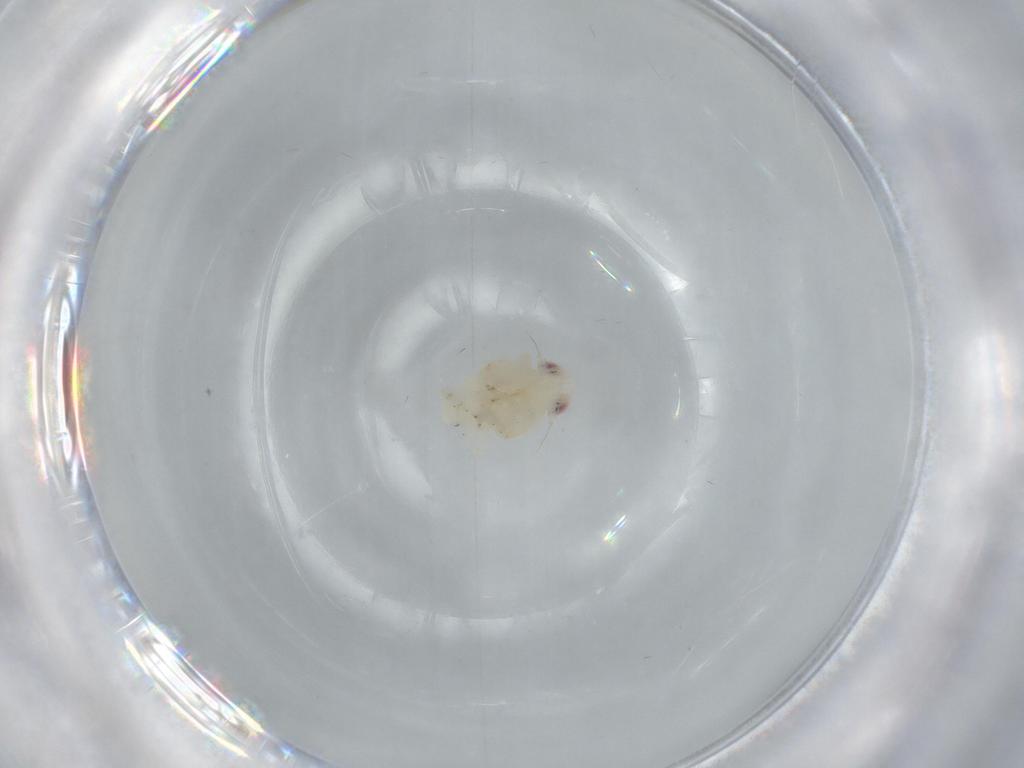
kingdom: Animalia
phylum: Arthropoda
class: Insecta
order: Hemiptera
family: Nogodinidae
